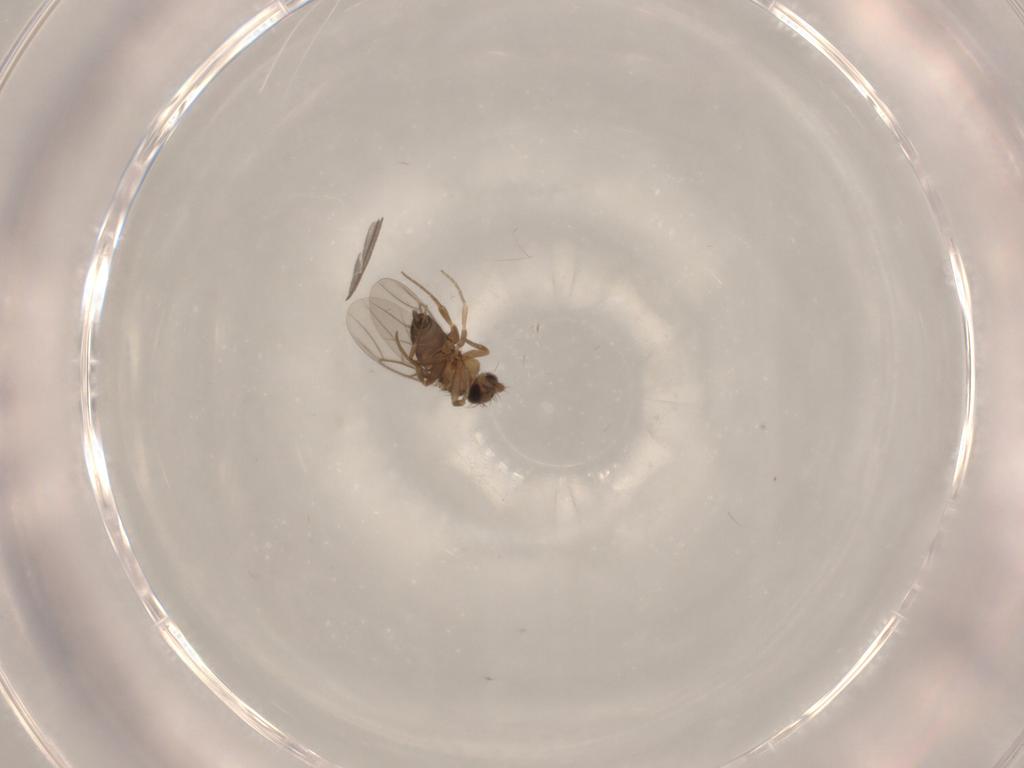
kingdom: Animalia
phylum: Arthropoda
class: Insecta
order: Diptera
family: Phoridae
